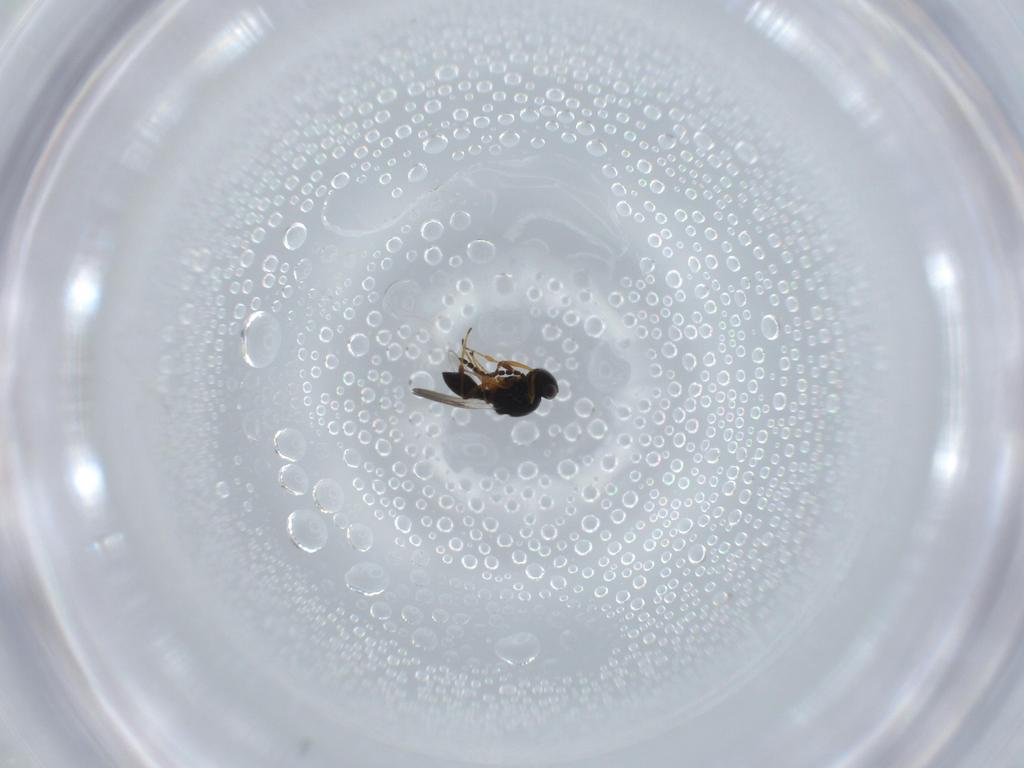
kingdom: Animalia
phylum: Arthropoda
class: Insecta
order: Hymenoptera
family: Platygastridae
